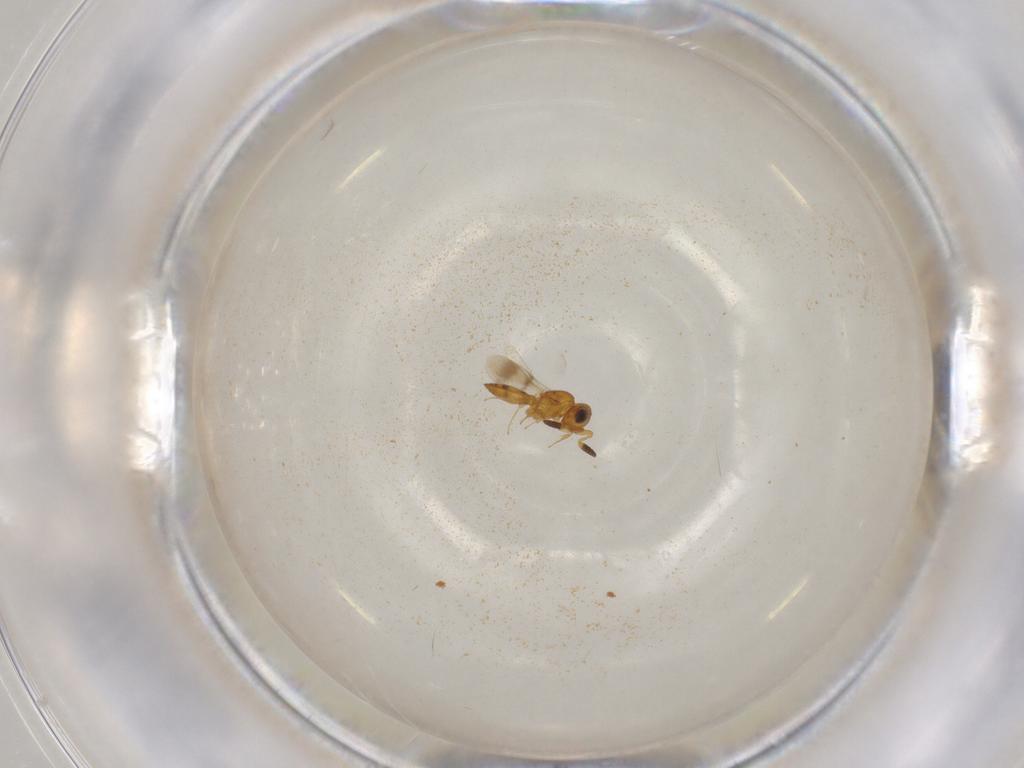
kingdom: Animalia
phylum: Arthropoda
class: Insecta
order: Hymenoptera
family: Scelionidae
